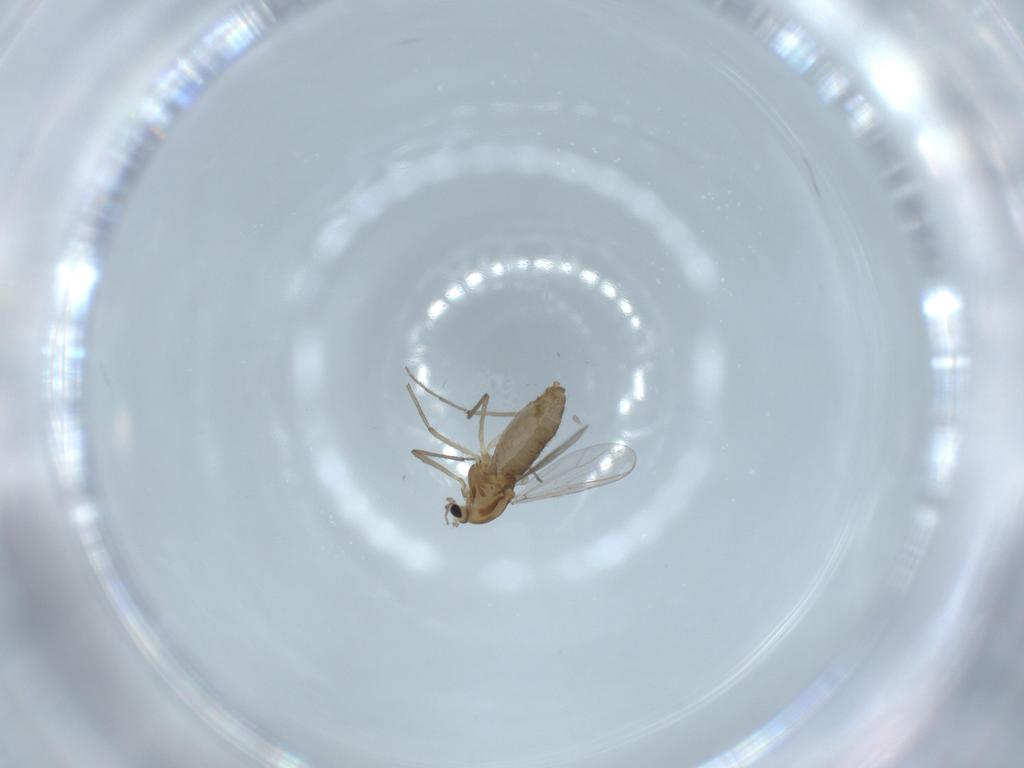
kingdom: Animalia
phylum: Arthropoda
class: Insecta
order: Diptera
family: Chironomidae
